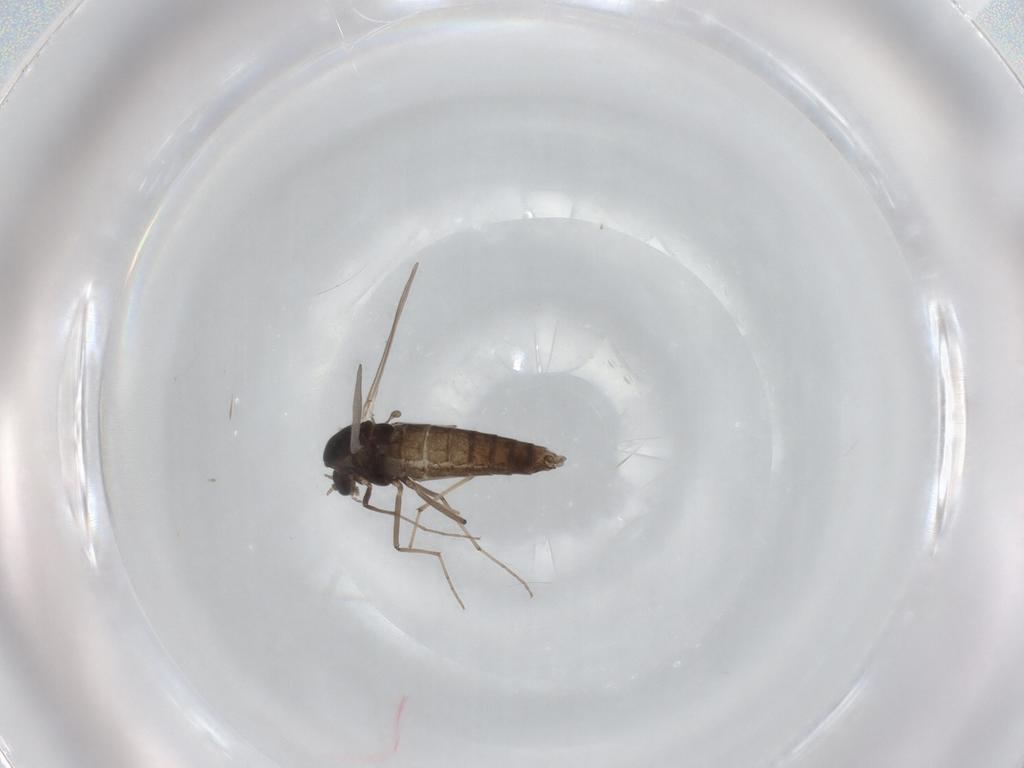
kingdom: Animalia
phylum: Arthropoda
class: Insecta
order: Diptera
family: Chironomidae
